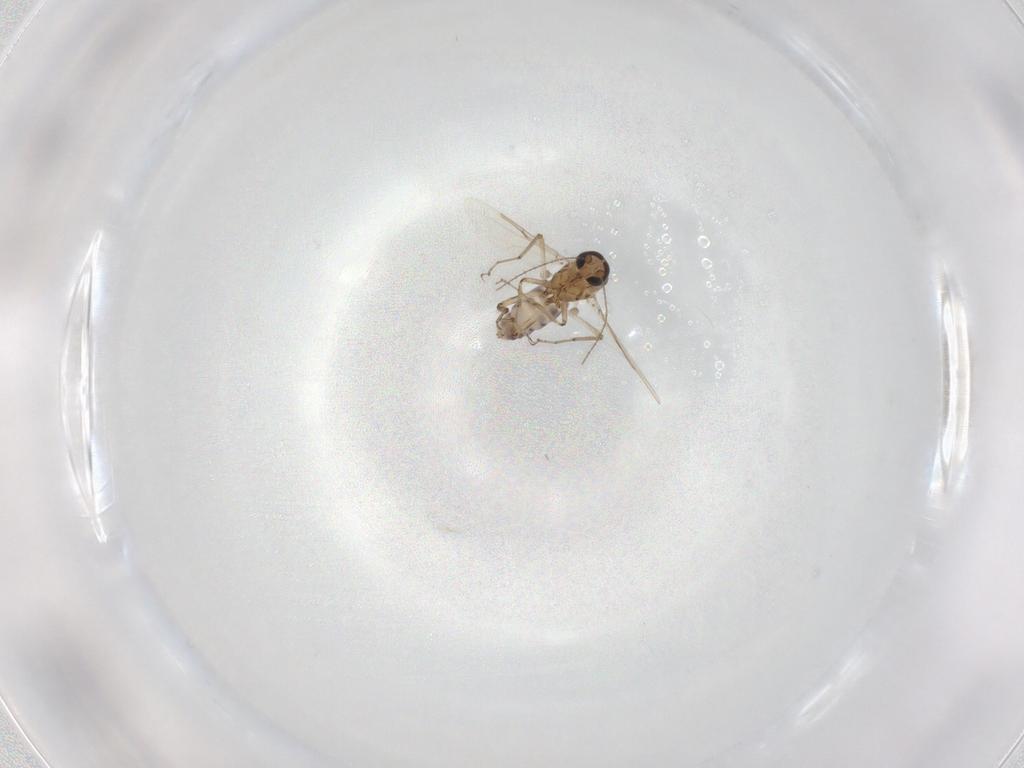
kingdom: Animalia
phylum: Arthropoda
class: Insecta
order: Diptera
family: Ceratopogonidae
